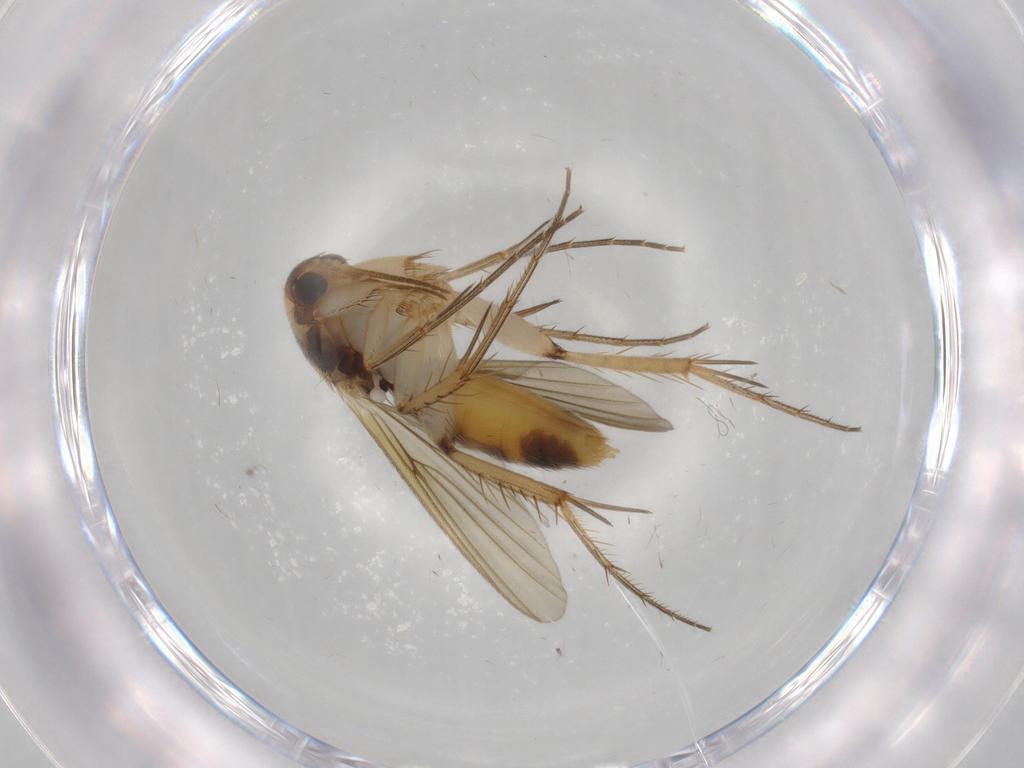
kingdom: Animalia
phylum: Arthropoda
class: Insecta
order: Diptera
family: Mycetophilidae
